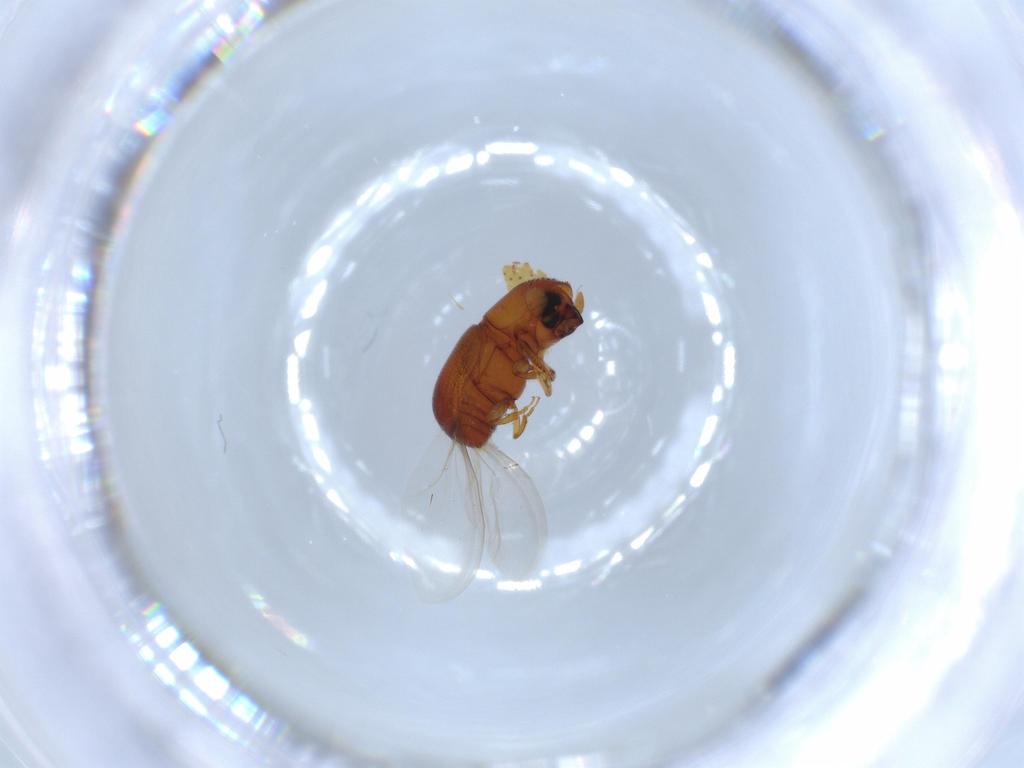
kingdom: Animalia
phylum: Arthropoda
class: Insecta
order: Coleoptera
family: Curculionidae
